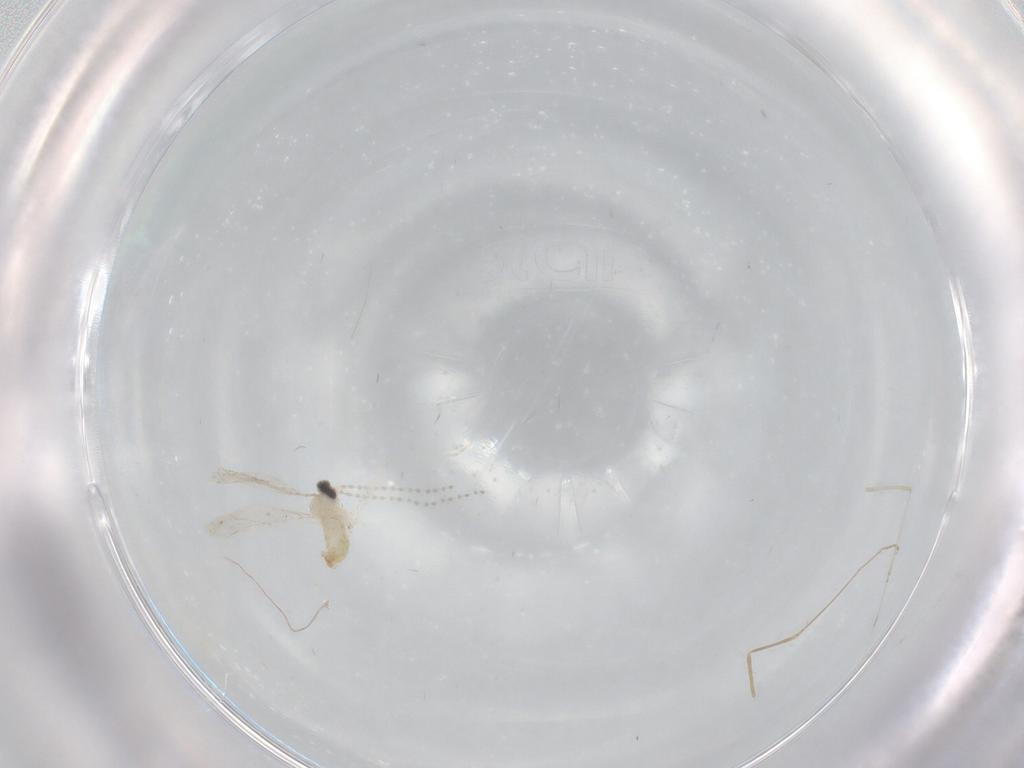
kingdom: Animalia
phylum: Arthropoda
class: Insecta
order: Diptera
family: Cecidomyiidae
